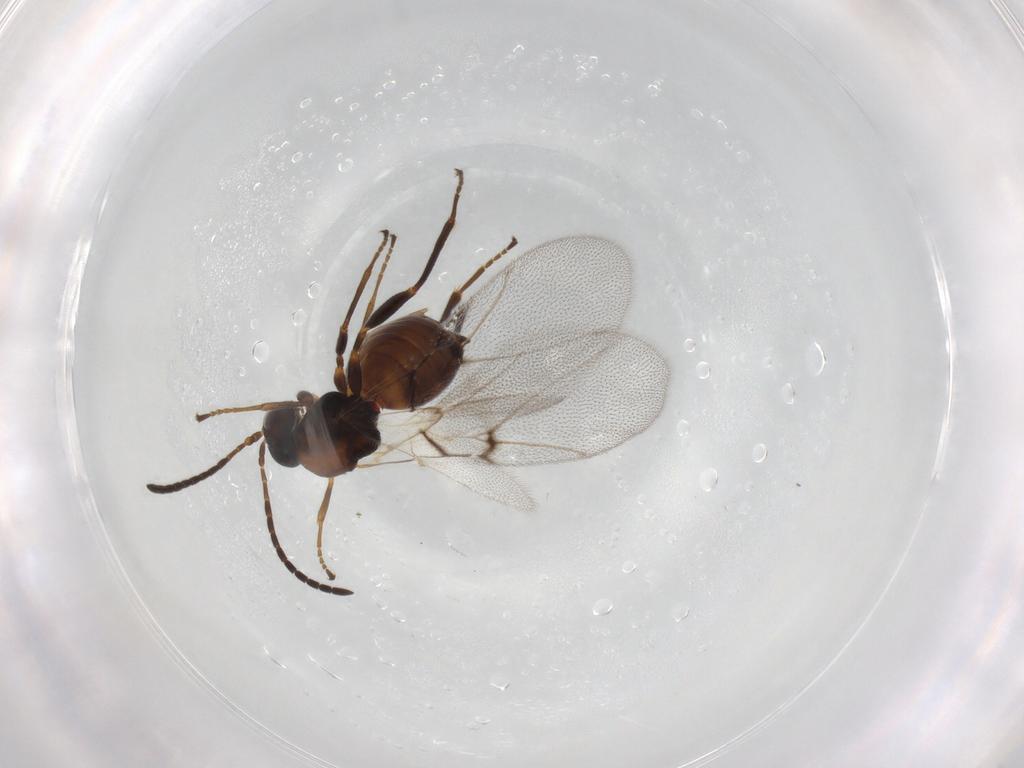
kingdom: Animalia
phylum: Arthropoda
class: Insecta
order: Hymenoptera
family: Cynipidae
